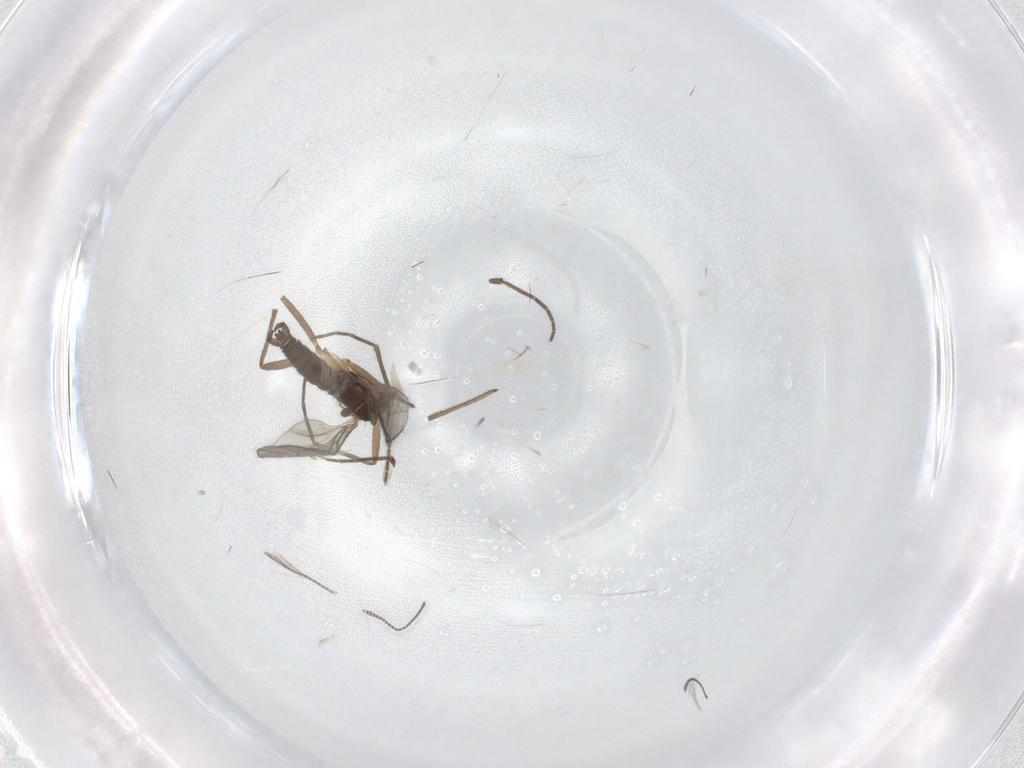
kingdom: Animalia
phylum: Arthropoda
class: Insecta
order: Diptera
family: Sciaridae
